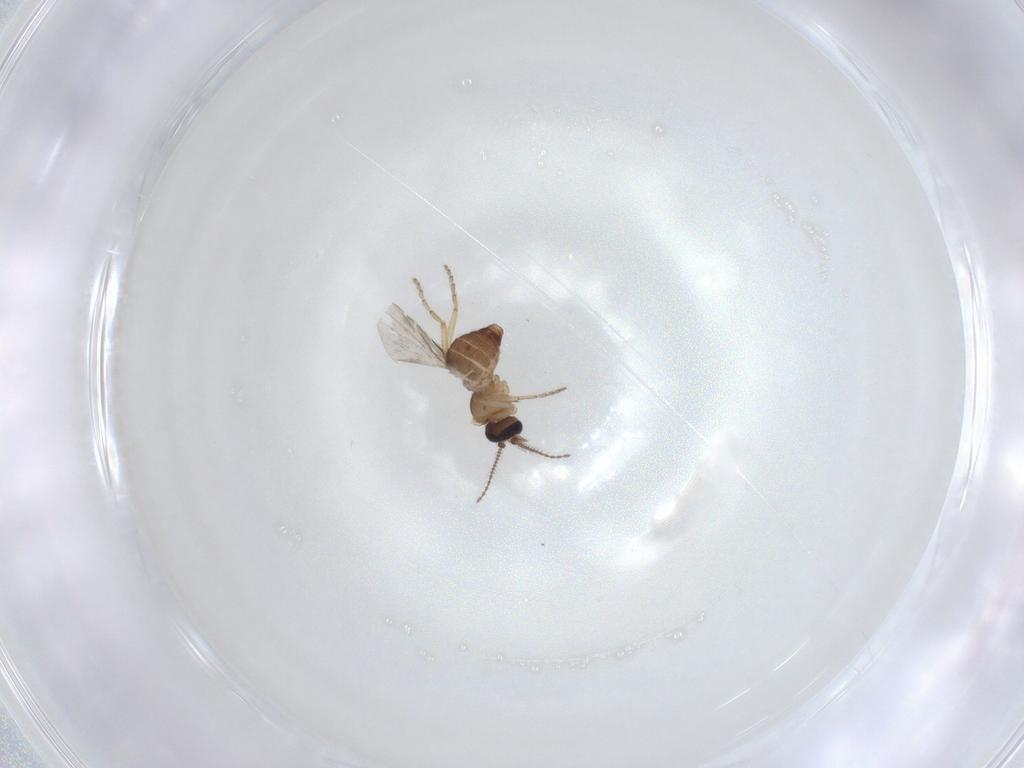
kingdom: Animalia
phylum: Arthropoda
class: Insecta
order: Diptera
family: Ceratopogonidae
